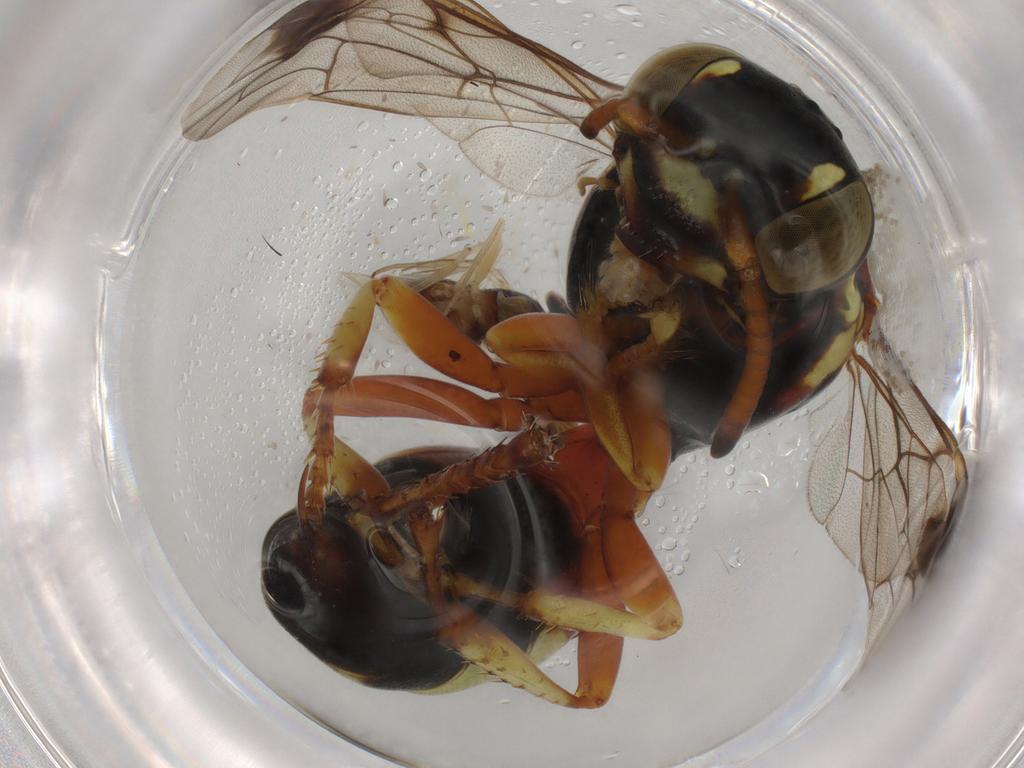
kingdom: Animalia
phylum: Arthropoda
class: Insecta
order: Hymenoptera
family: Bembicidae
